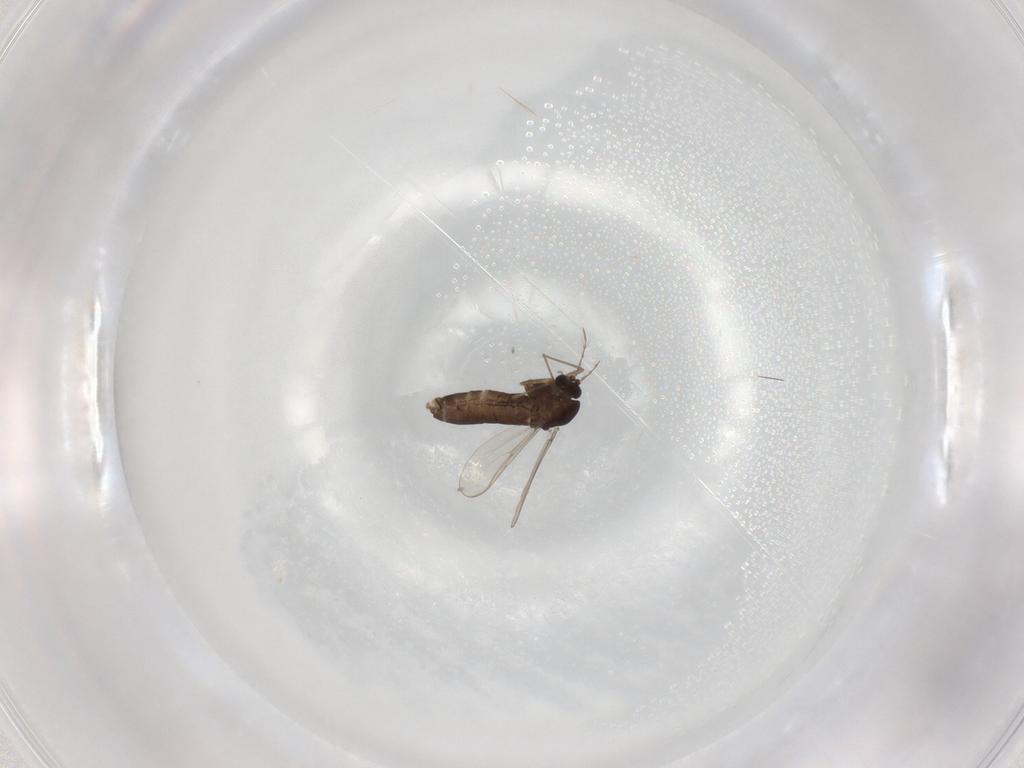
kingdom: Animalia
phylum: Arthropoda
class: Insecta
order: Diptera
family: Chironomidae
